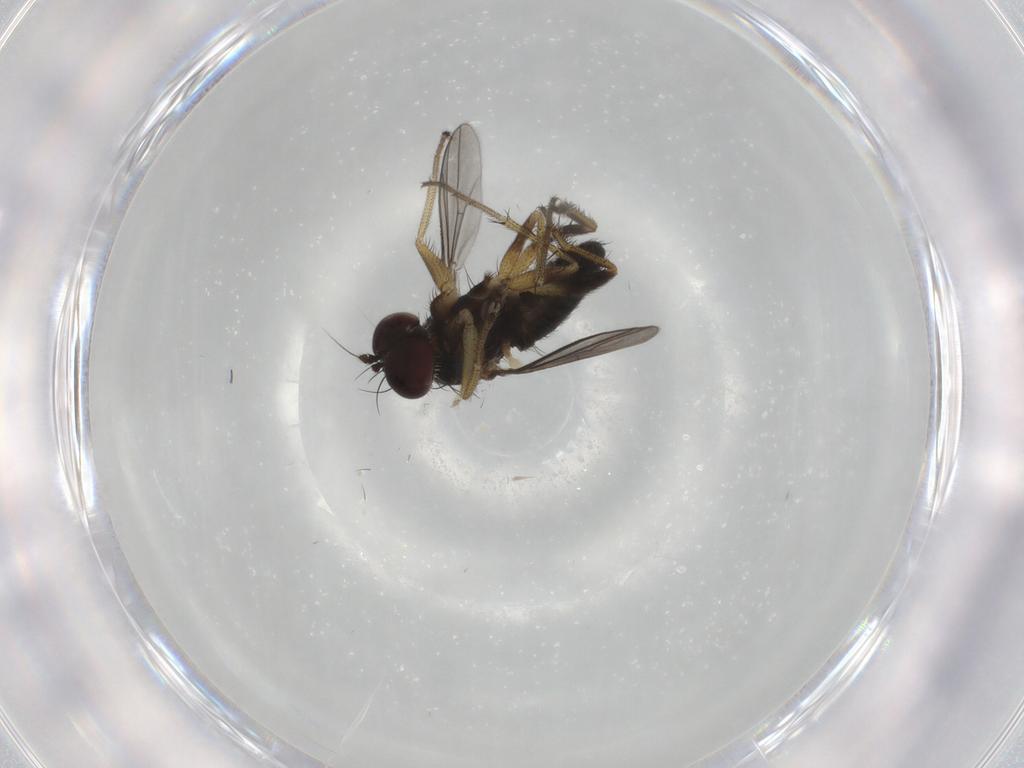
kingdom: Animalia
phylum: Arthropoda
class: Insecta
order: Diptera
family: Dolichopodidae
